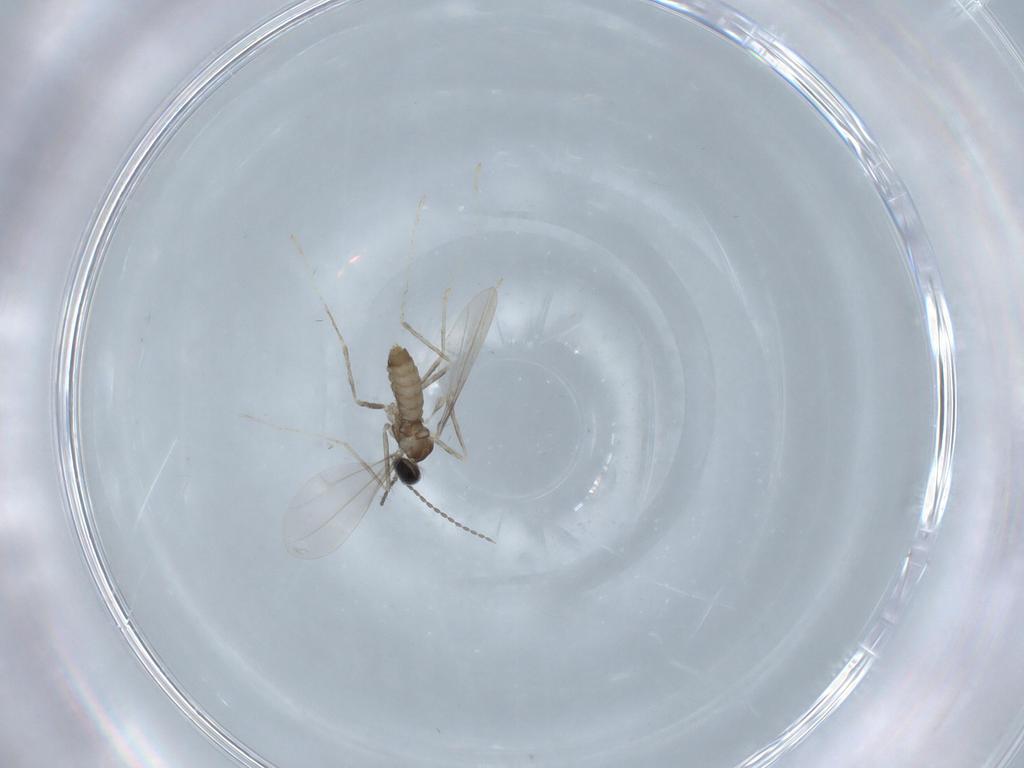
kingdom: Animalia
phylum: Arthropoda
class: Insecta
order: Diptera
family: Cecidomyiidae
